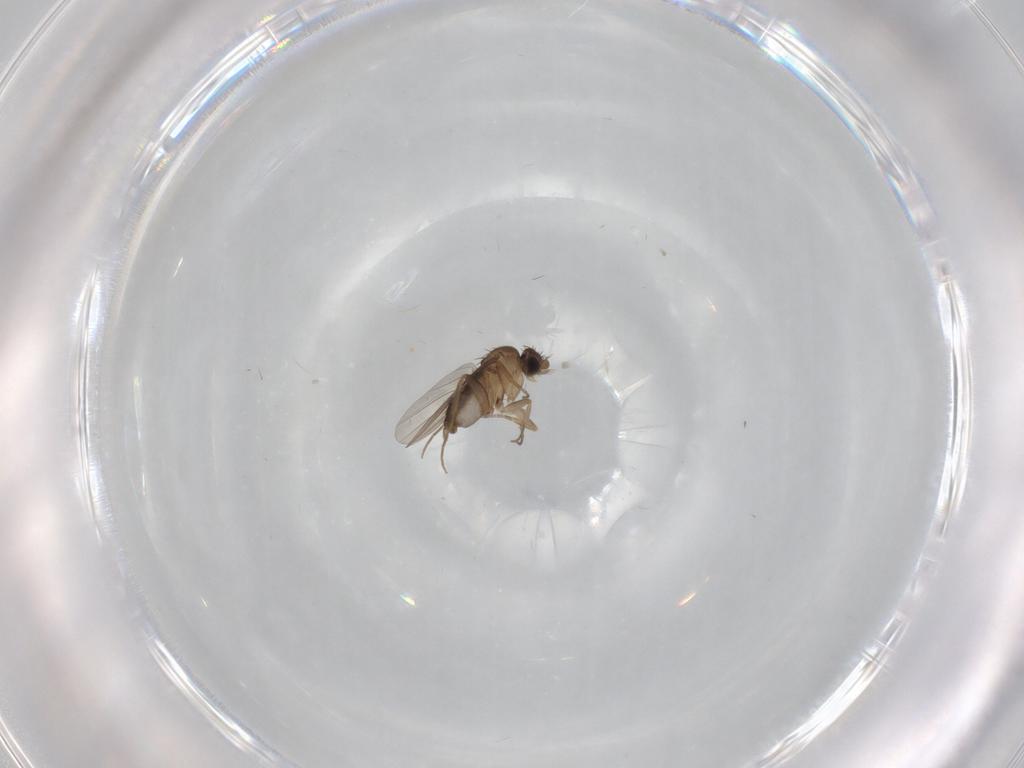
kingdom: Animalia
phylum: Arthropoda
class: Insecta
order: Diptera
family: Cecidomyiidae
